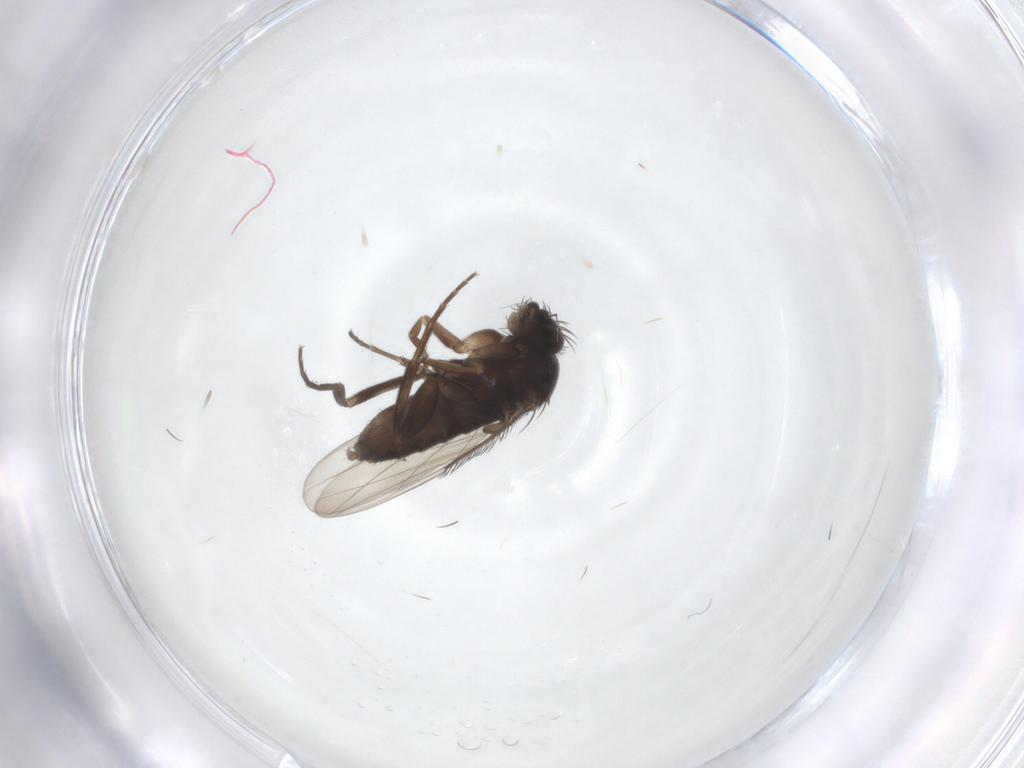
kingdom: Animalia
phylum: Arthropoda
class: Insecta
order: Diptera
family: Phoridae
